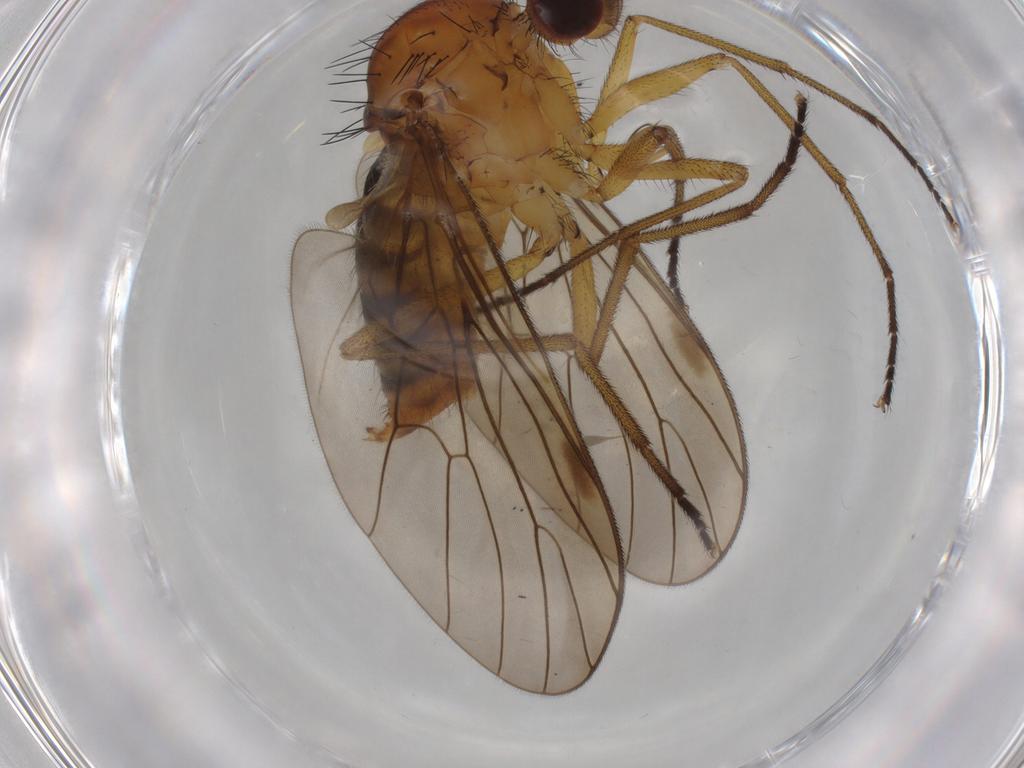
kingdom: Animalia
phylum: Arthropoda
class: Insecta
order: Diptera
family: Brachystomatidae
